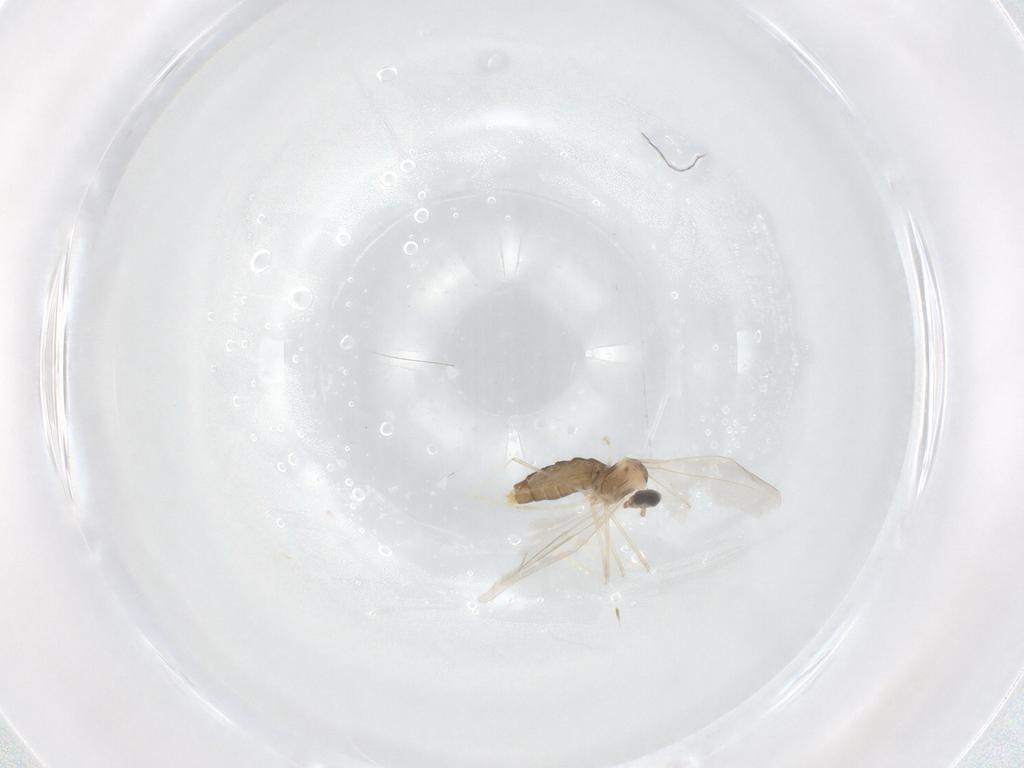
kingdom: Animalia
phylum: Arthropoda
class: Insecta
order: Diptera
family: Cecidomyiidae
